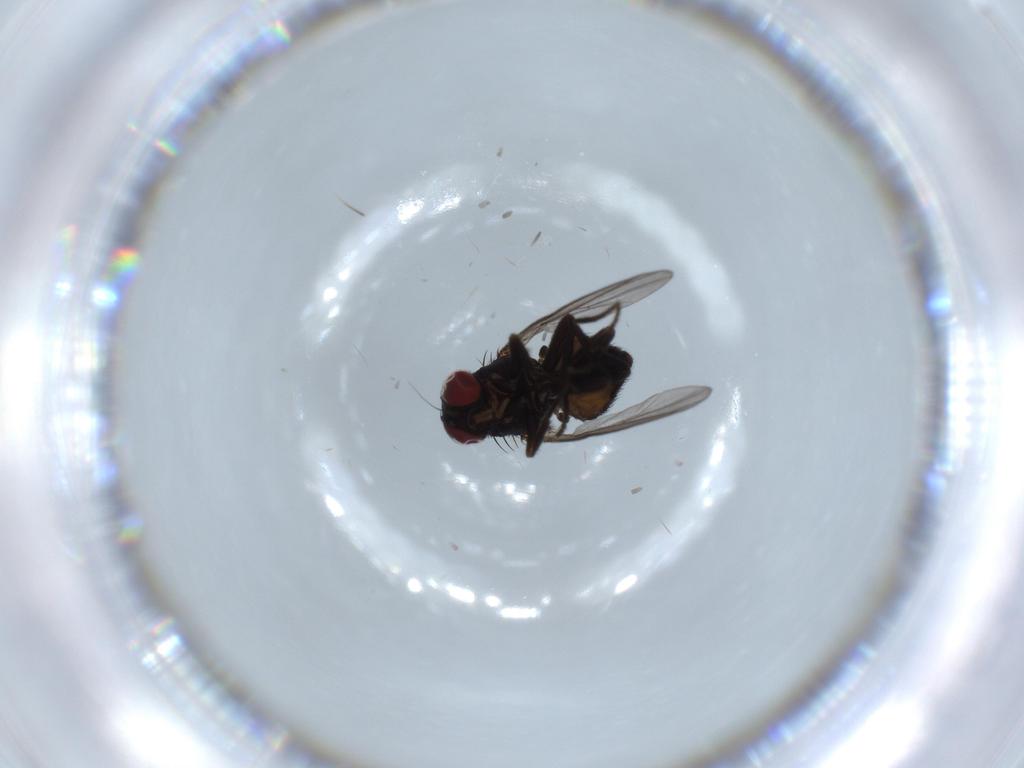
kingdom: Animalia
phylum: Arthropoda
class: Insecta
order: Diptera
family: Agromyzidae
